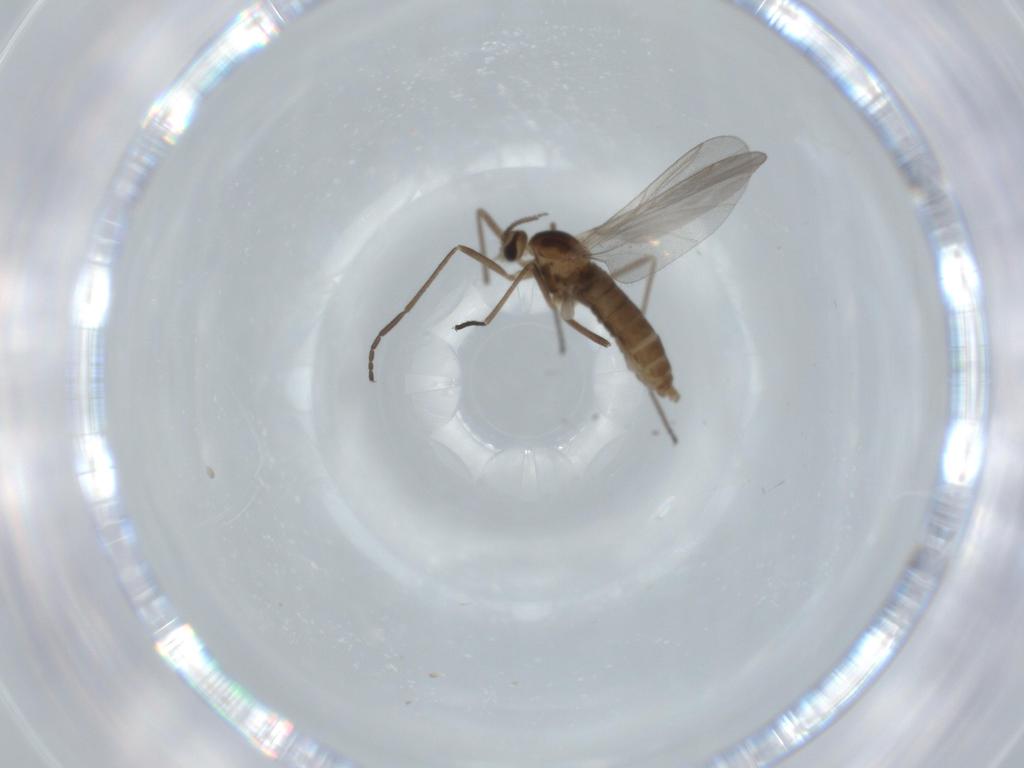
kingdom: Animalia
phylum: Arthropoda
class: Insecta
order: Diptera
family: Cecidomyiidae
